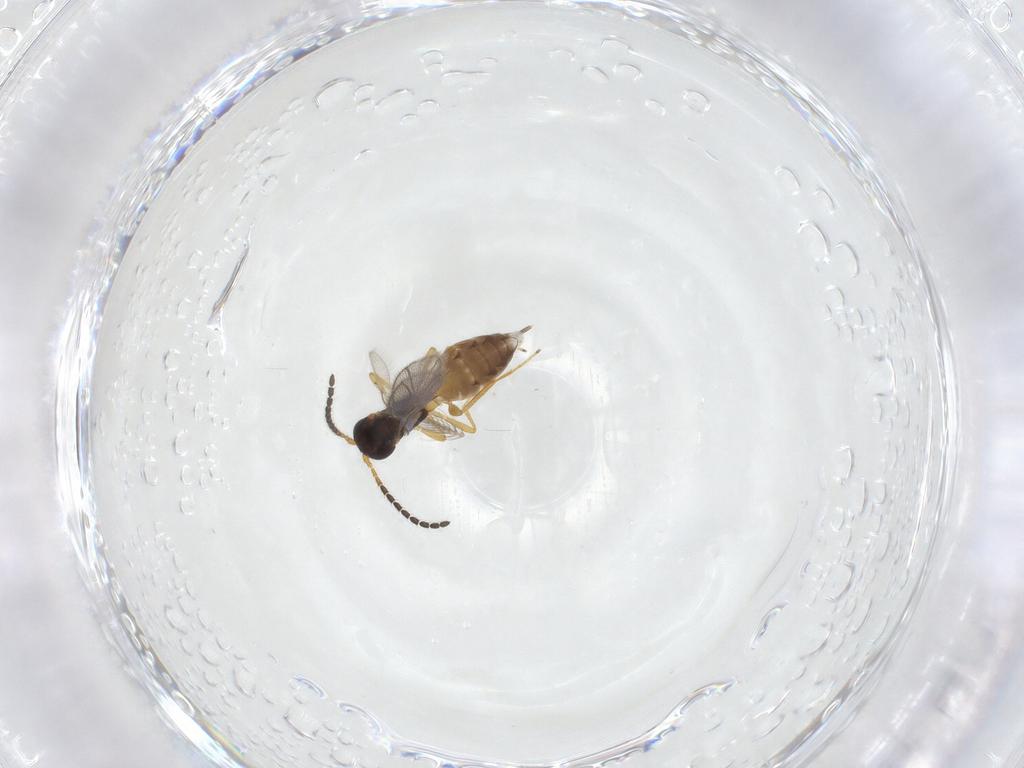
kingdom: Animalia
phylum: Arthropoda
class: Insecta
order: Hymenoptera
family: Braconidae
